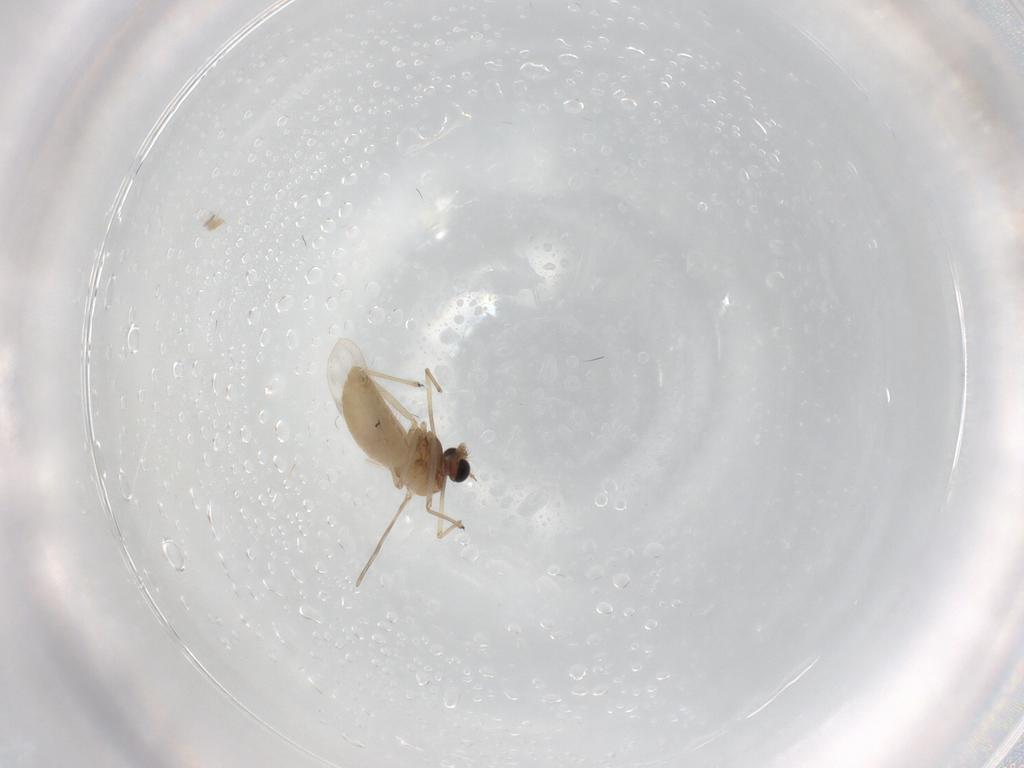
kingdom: Animalia
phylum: Arthropoda
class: Insecta
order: Diptera
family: Chironomidae
